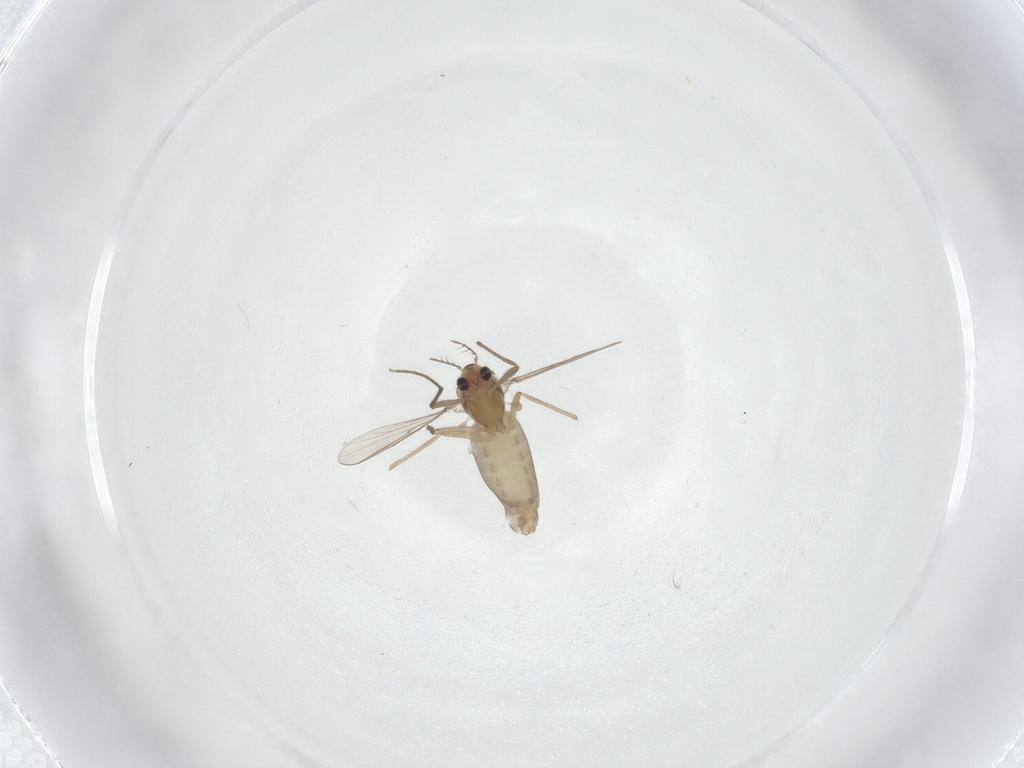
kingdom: Animalia
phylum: Arthropoda
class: Insecta
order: Diptera
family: Chironomidae
